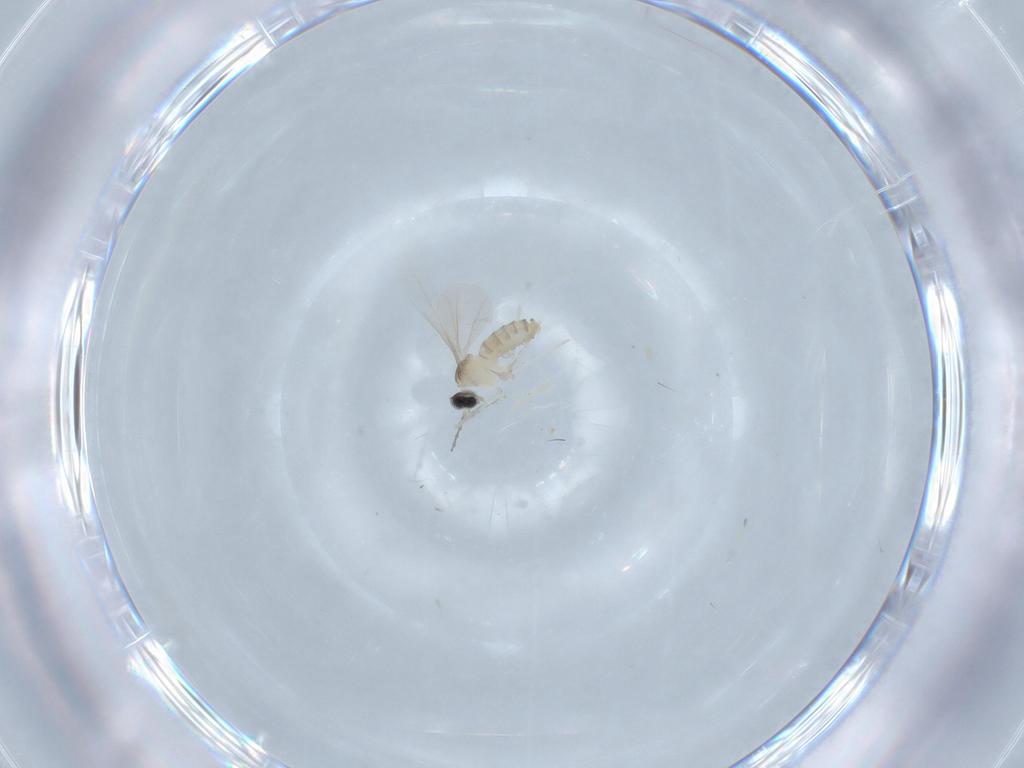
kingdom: Animalia
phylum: Arthropoda
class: Insecta
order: Diptera
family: Cecidomyiidae
